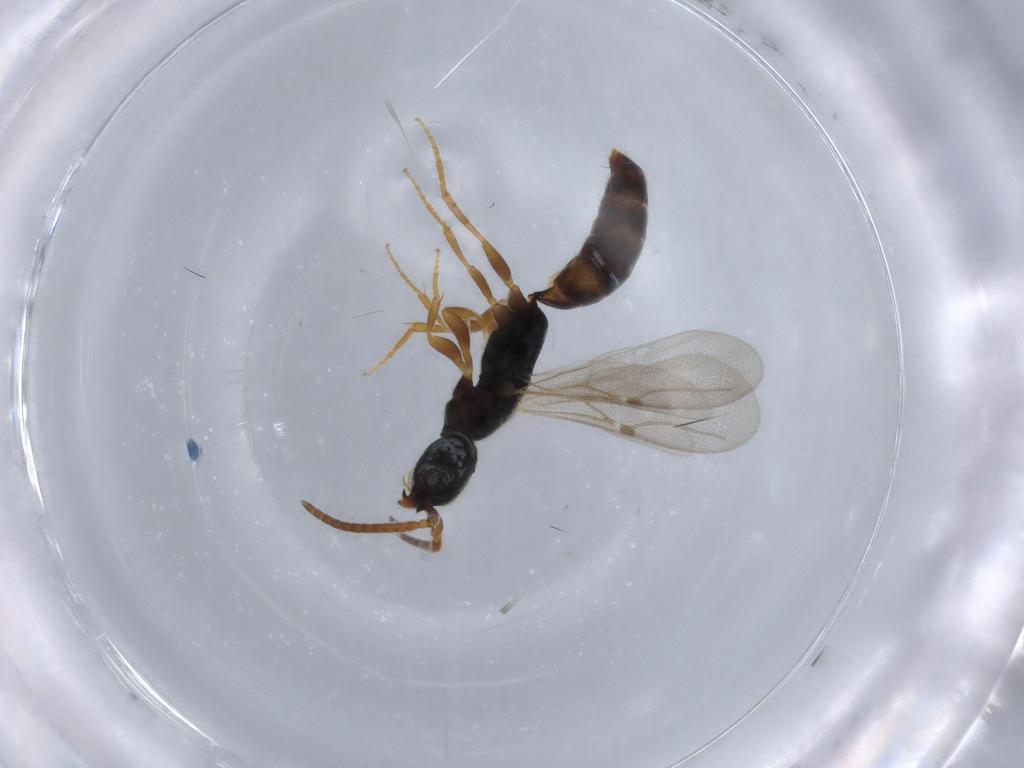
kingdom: Animalia
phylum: Arthropoda
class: Insecta
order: Hymenoptera
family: Bethylidae
